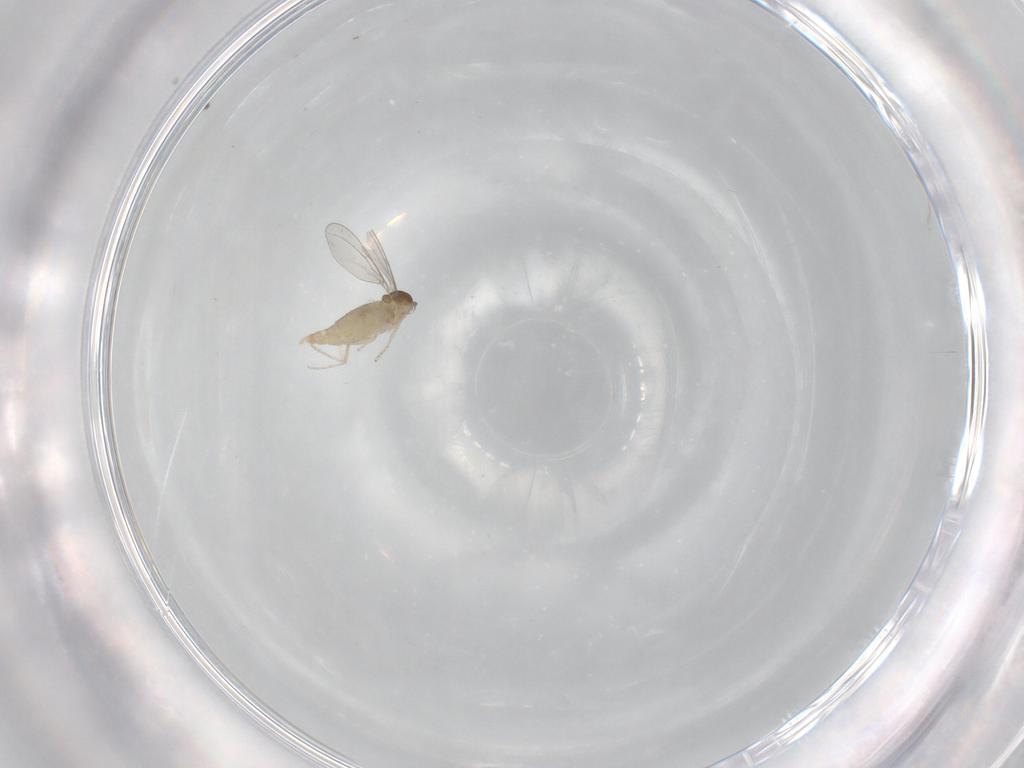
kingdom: Animalia
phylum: Arthropoda
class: Insecta
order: Diptera
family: Cecidomyiidae
